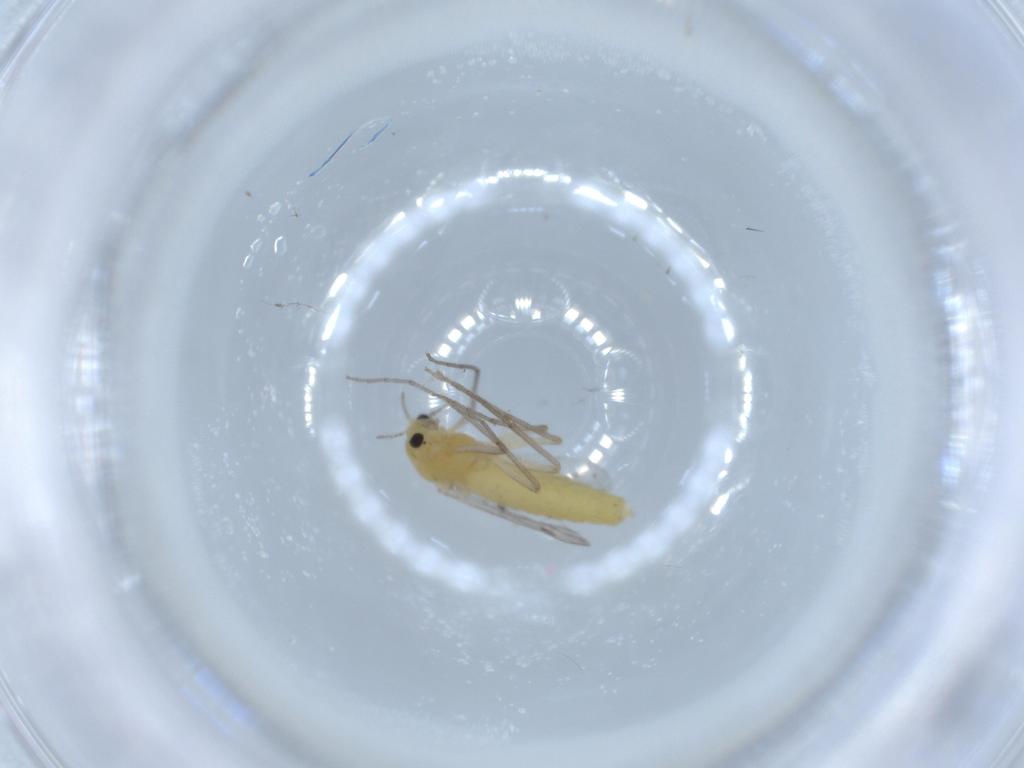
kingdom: Animalia
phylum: Arthropoda
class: Insecta
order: Diptera
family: Chironomidae
